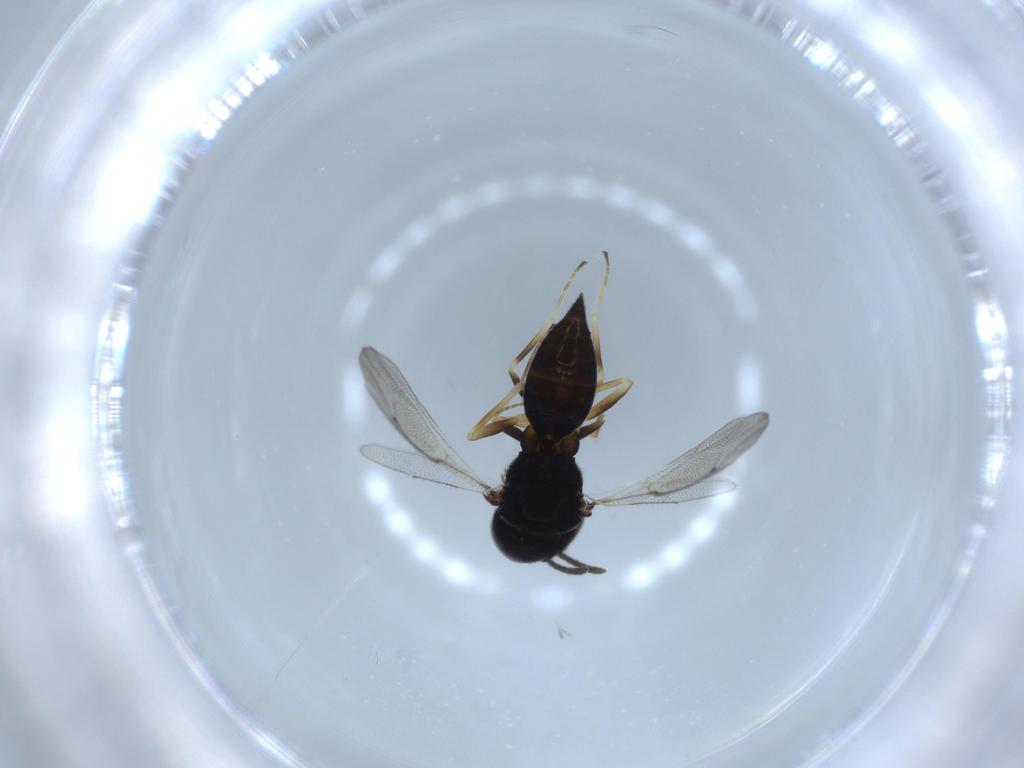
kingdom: Animalia
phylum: Arthropoda
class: Insecta
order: Hymenoptera
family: Pteromalidae
